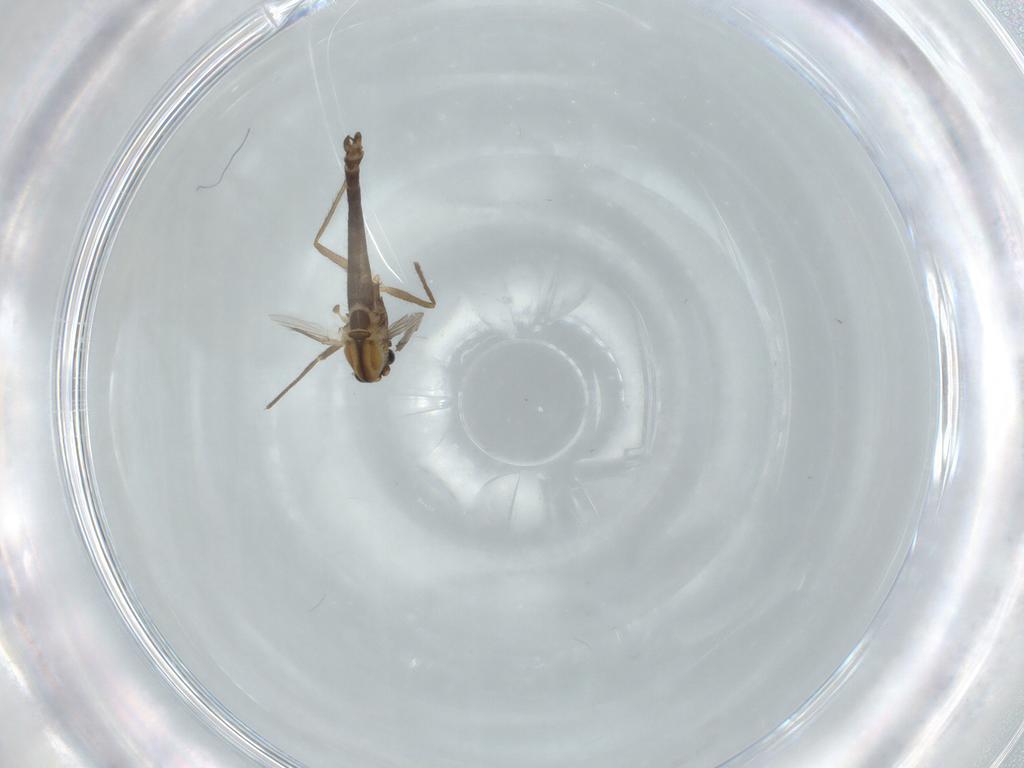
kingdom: Animalia
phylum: Arthropoda
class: Insecta
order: Diptera
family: Chironomidae
